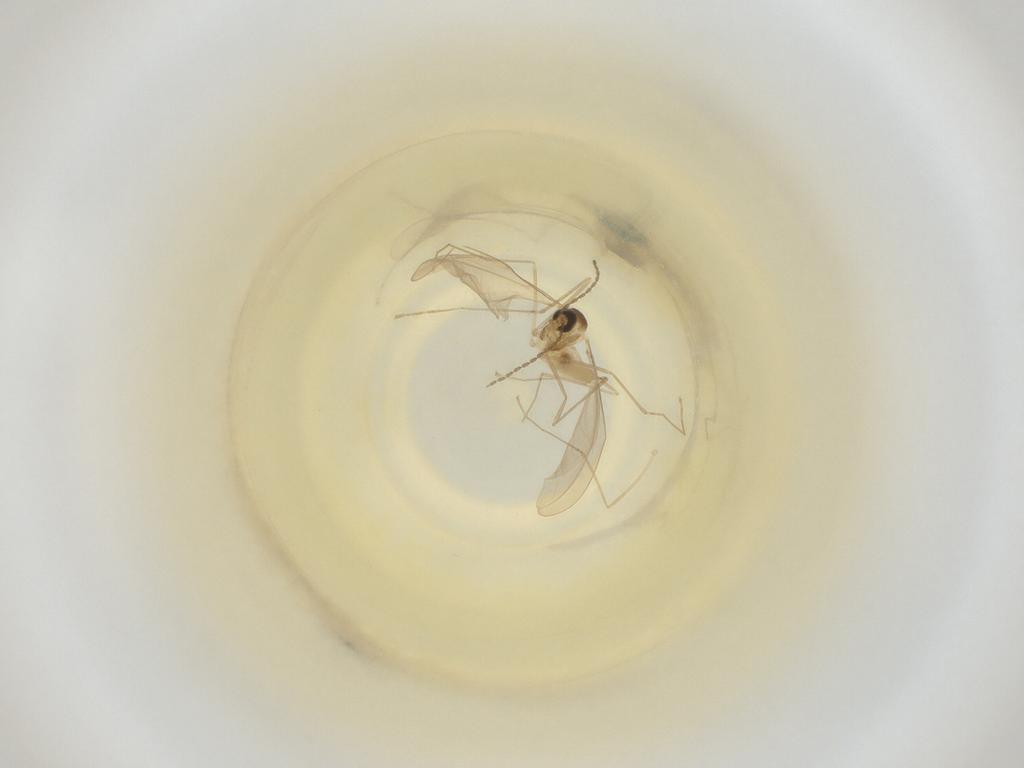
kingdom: Animalia
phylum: Arthropoda
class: Insecta
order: Diptera
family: Cecidomyiidae
